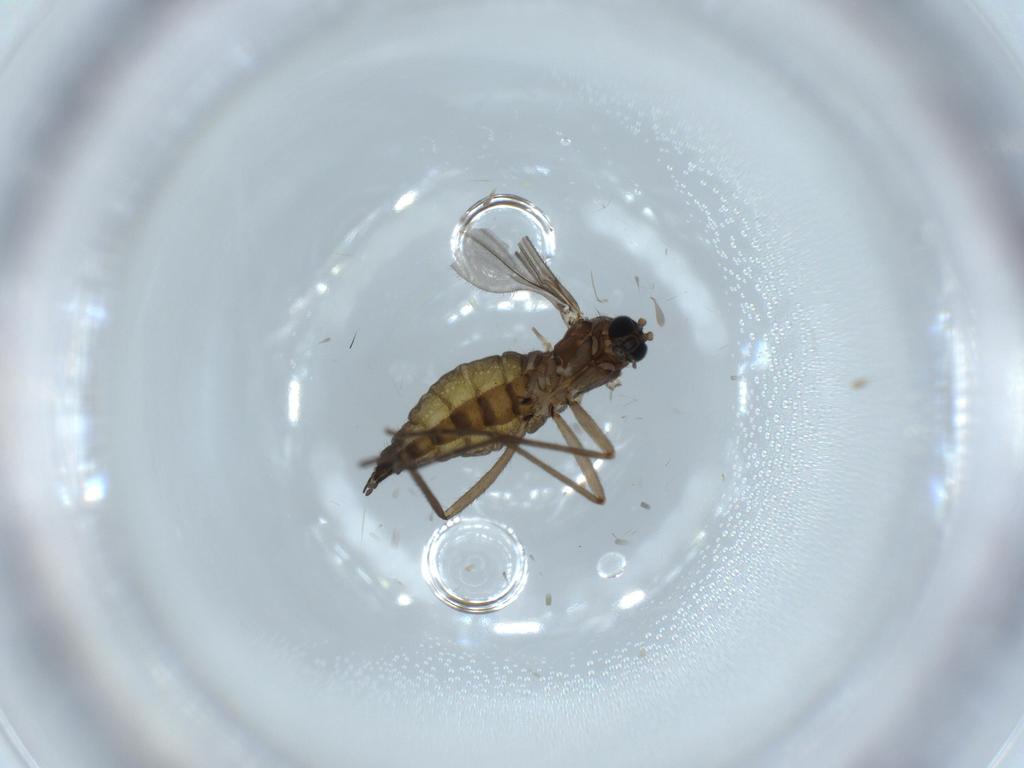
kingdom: Animalia
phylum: Arthropoda
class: Insecta
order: Diptera
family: Sciaridae
